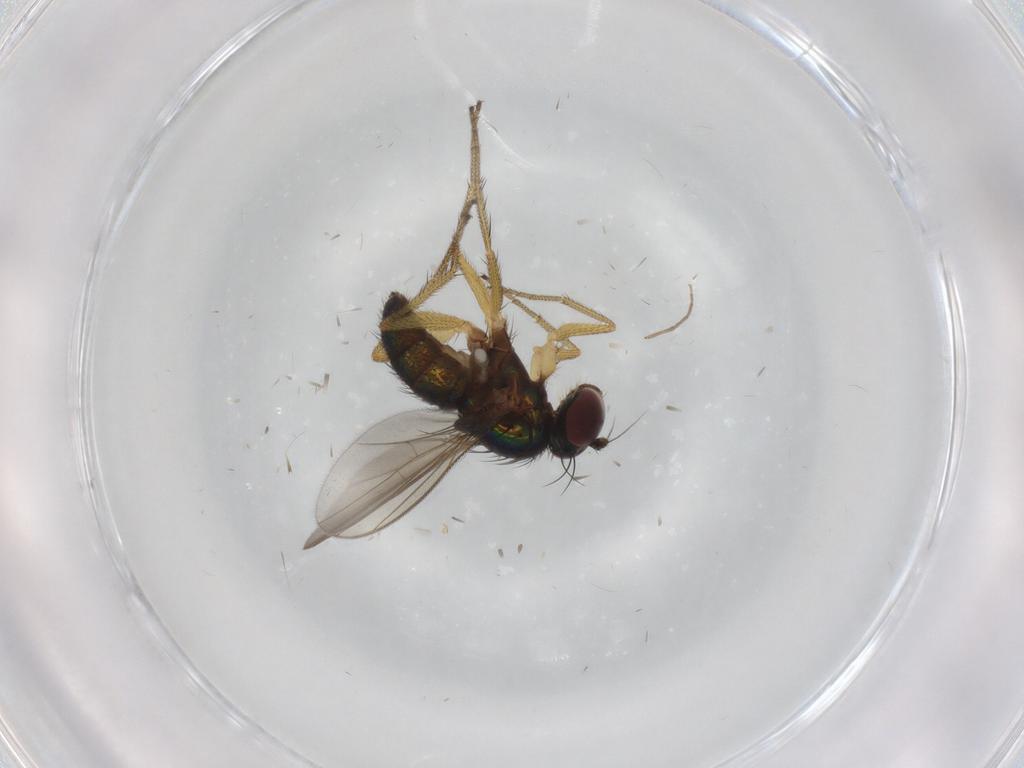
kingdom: Animalia
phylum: Arthropoda
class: Insecta
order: Diptera
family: Dolichopodidae
